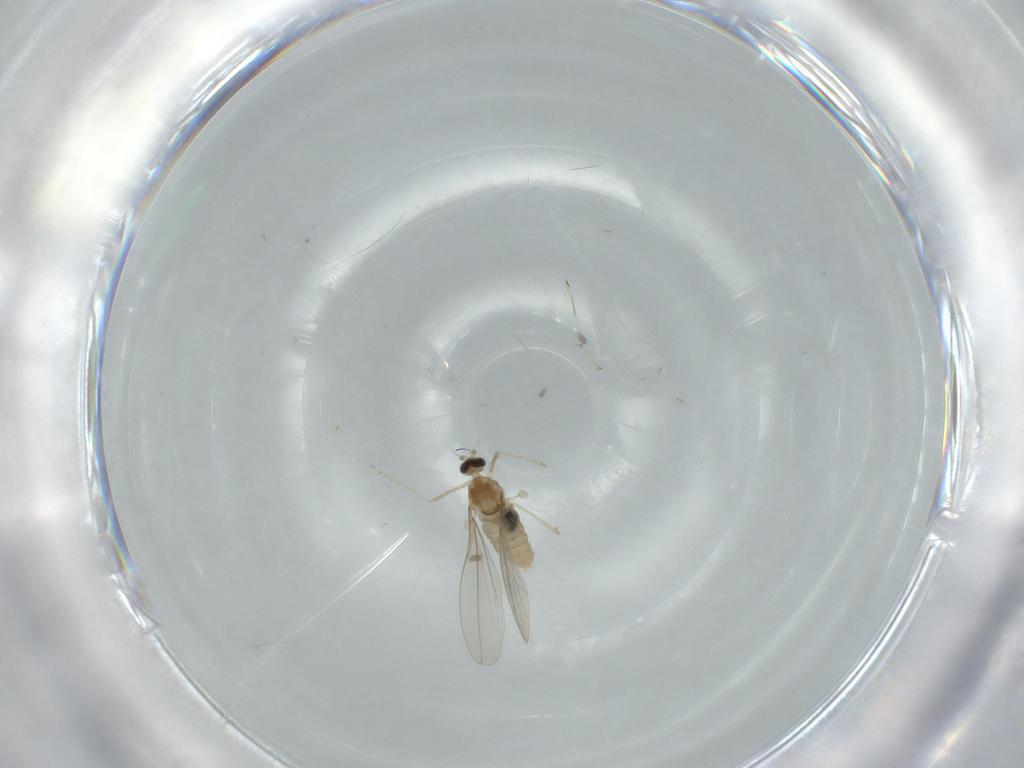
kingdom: Animalia
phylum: Arthropoda
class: Insecta
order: Diptera
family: Cecidomyiidae
